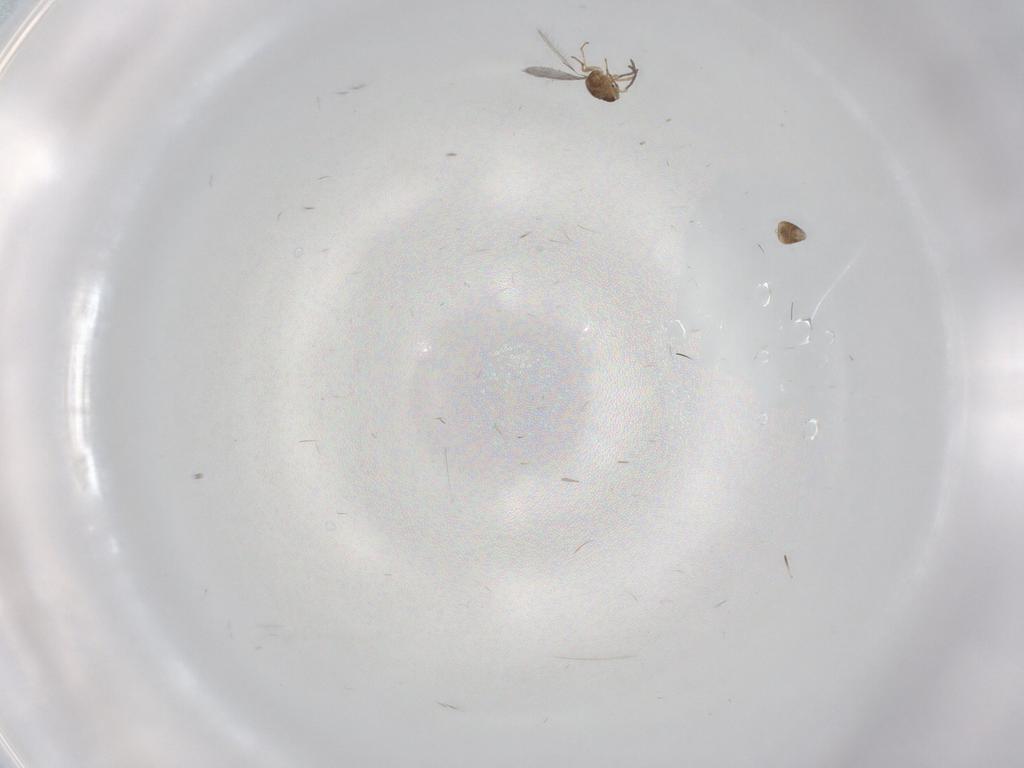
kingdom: Animalia
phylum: Arthropoda
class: Insecta
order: Hymenoptera
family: Mymaridae
